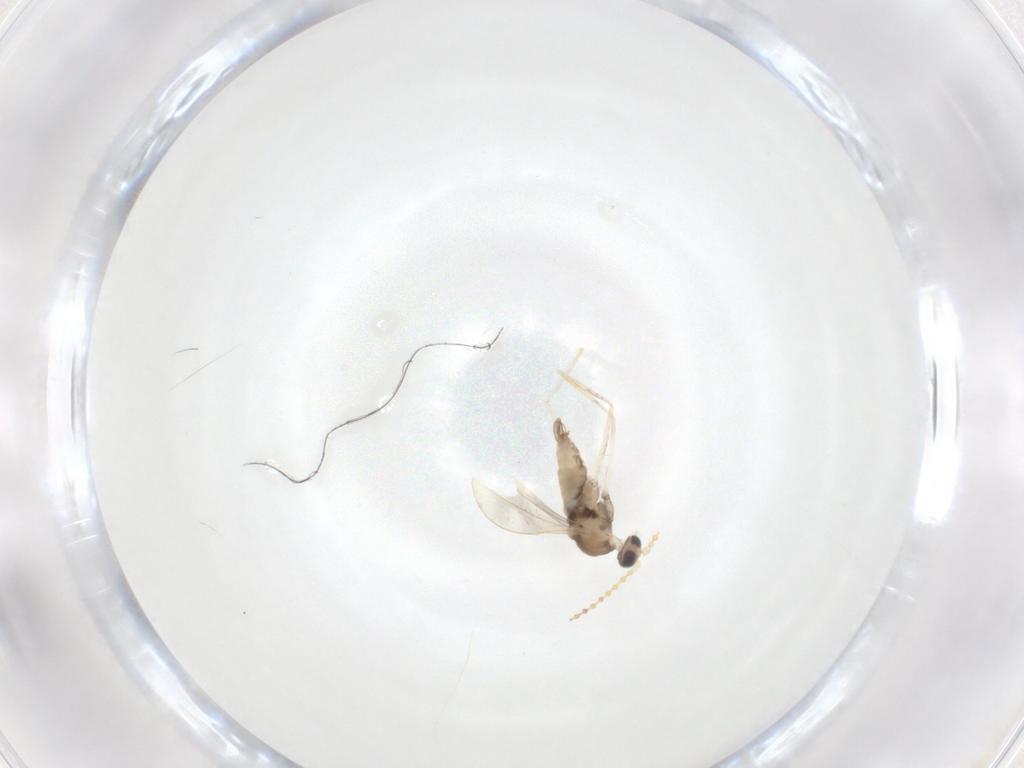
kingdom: Animalia
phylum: Arthropoda
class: Insecta
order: Diptera
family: Cecidomyiidae
